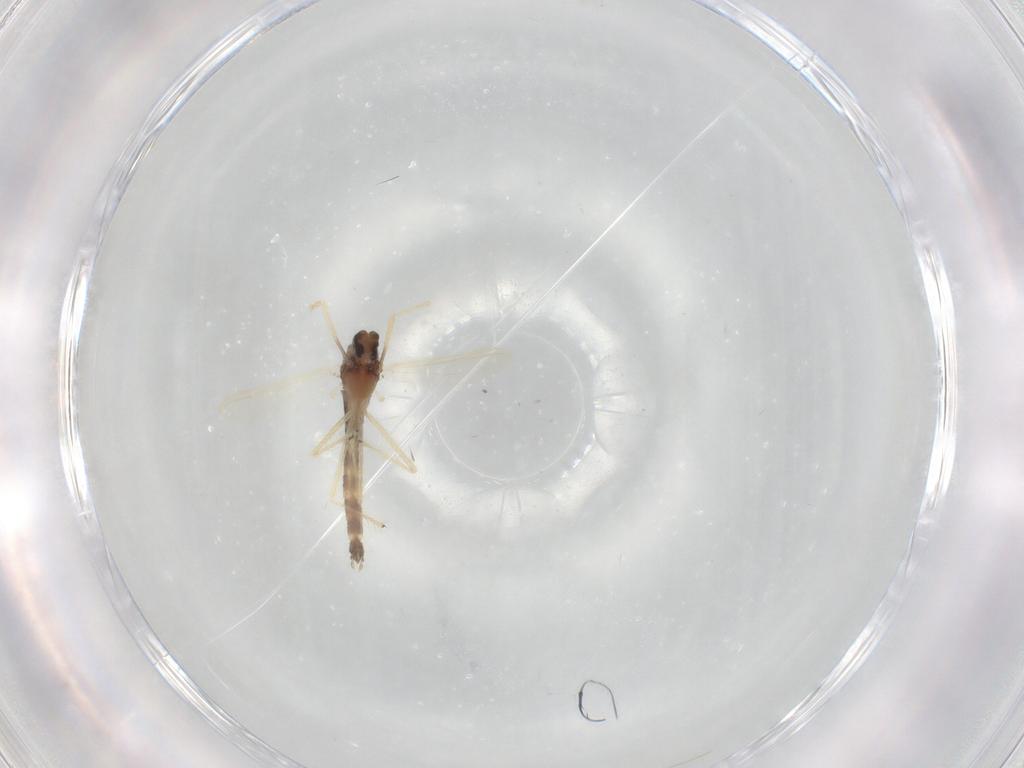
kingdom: Animalia
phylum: Arthropoda
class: Insecta
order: Diptera
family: Chironomidae
